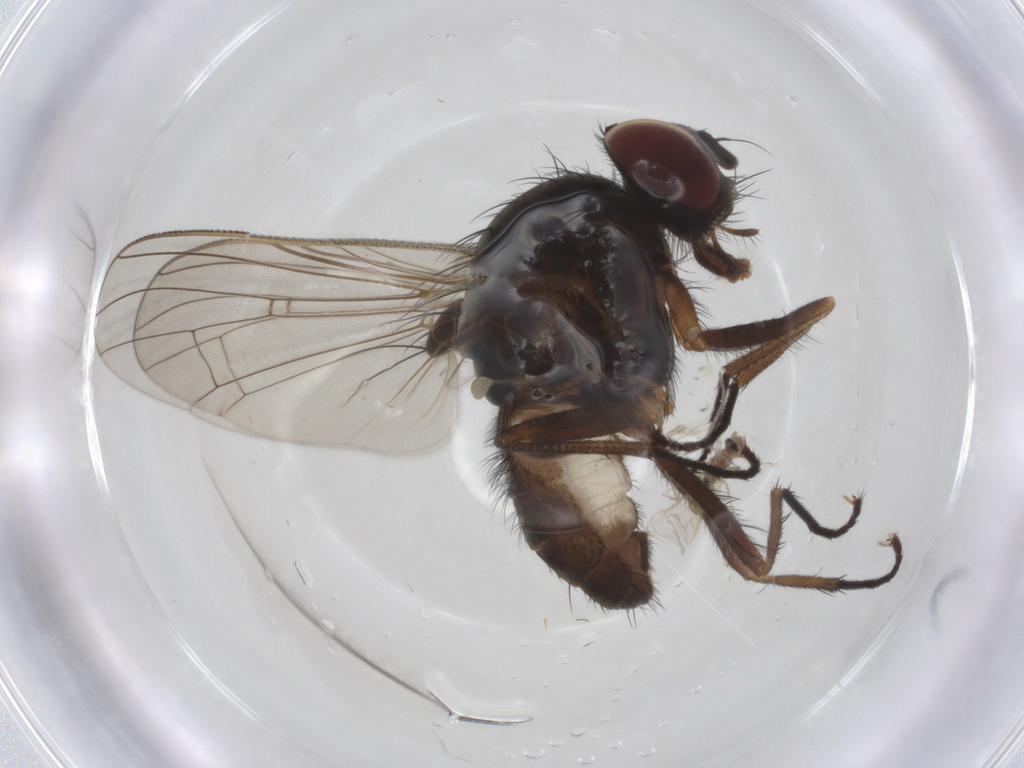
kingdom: Animalia
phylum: Arthropoda
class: Insecta
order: Diptera
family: Anthomyiidae
